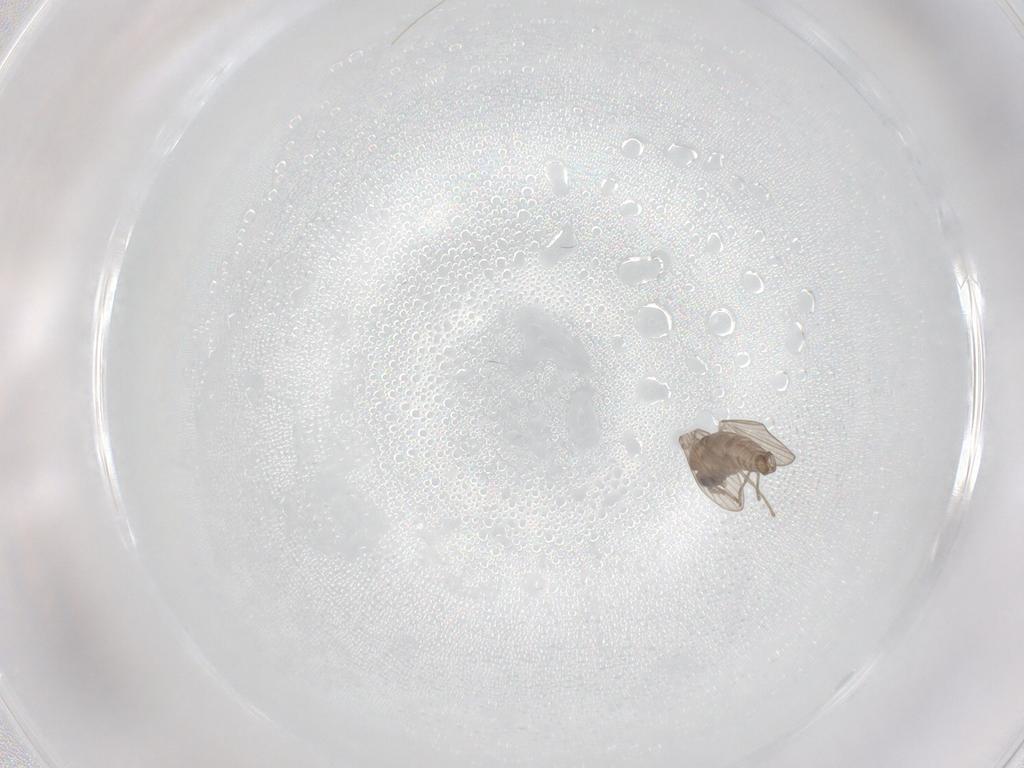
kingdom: Animalia
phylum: Arthropoda
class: Insecta
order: Diptera
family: Psychodidae
